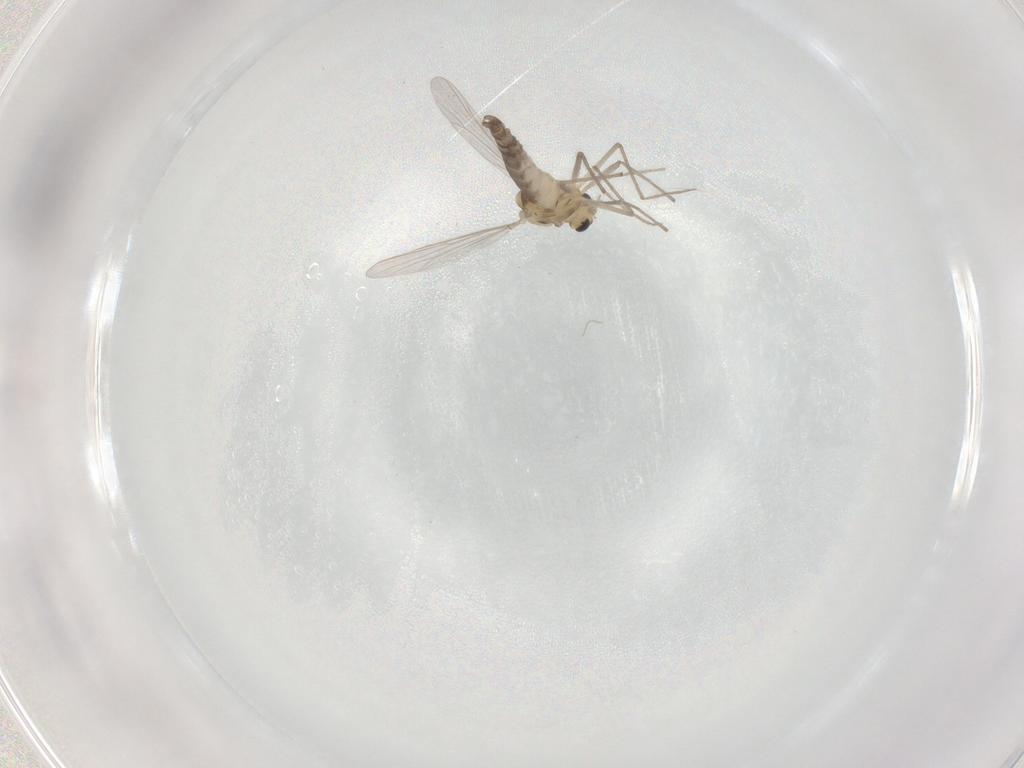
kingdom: Animalia
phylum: Arthropoda
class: Insecta
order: Diptera
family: Chironomidae
